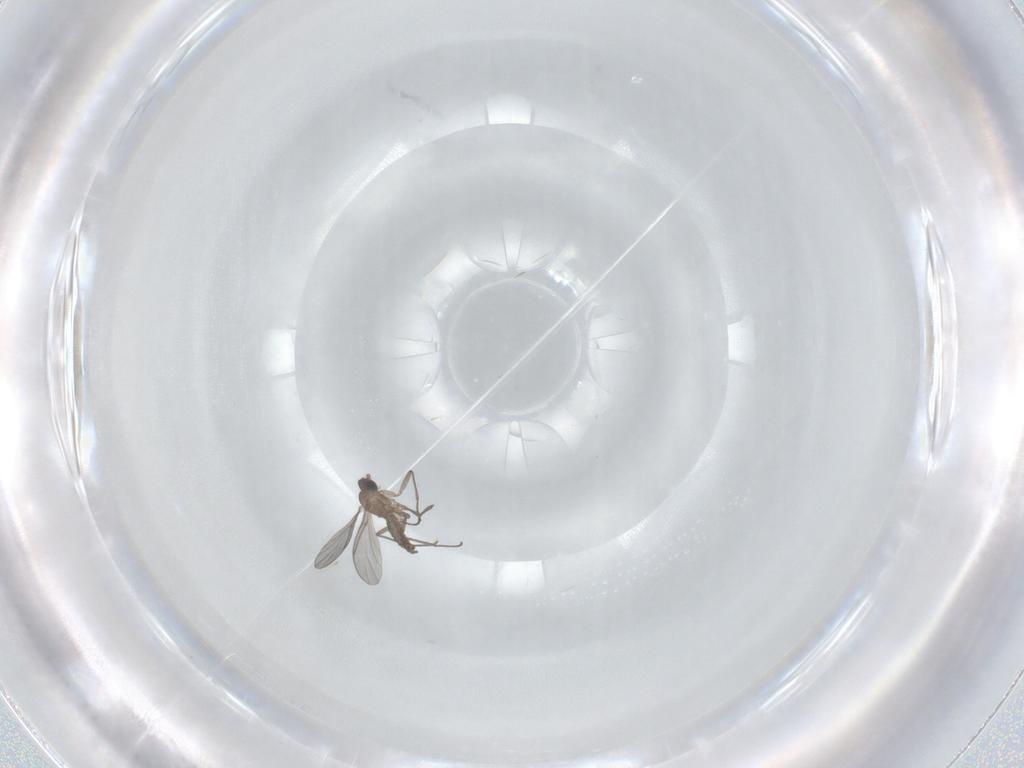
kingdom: Animalia
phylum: Arthropoda
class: Insecta
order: Diptera
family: Sciaridae
